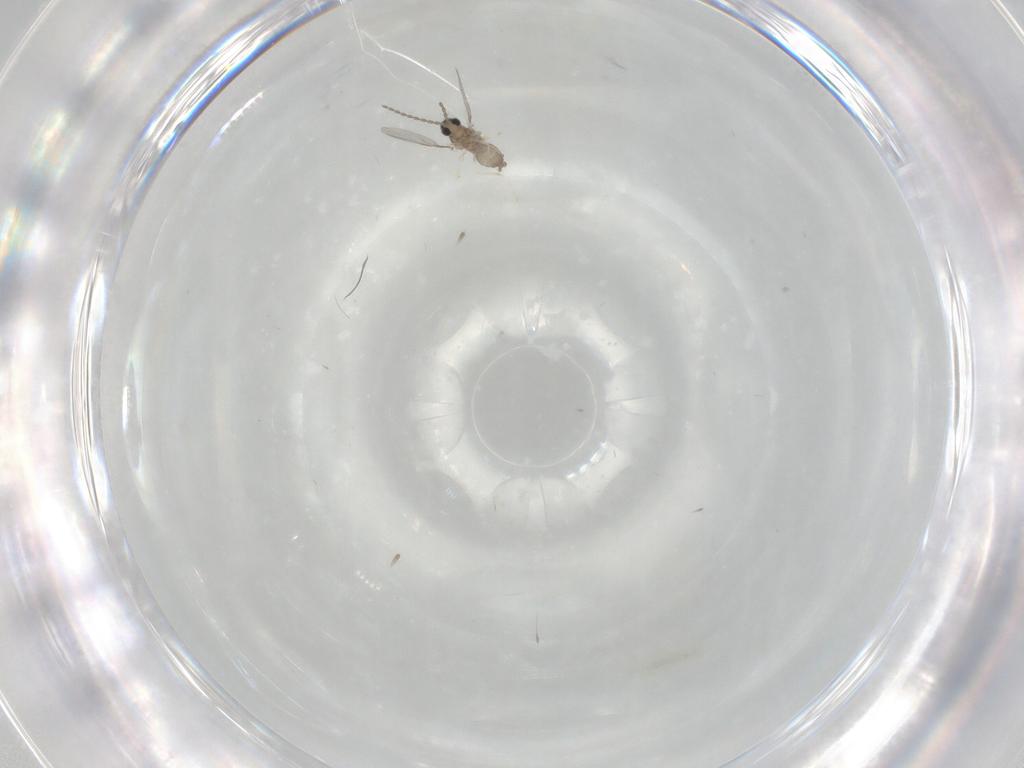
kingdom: Animalia
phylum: Arthropoda
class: Insecta
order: Diptera
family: Cecidomyiidae
